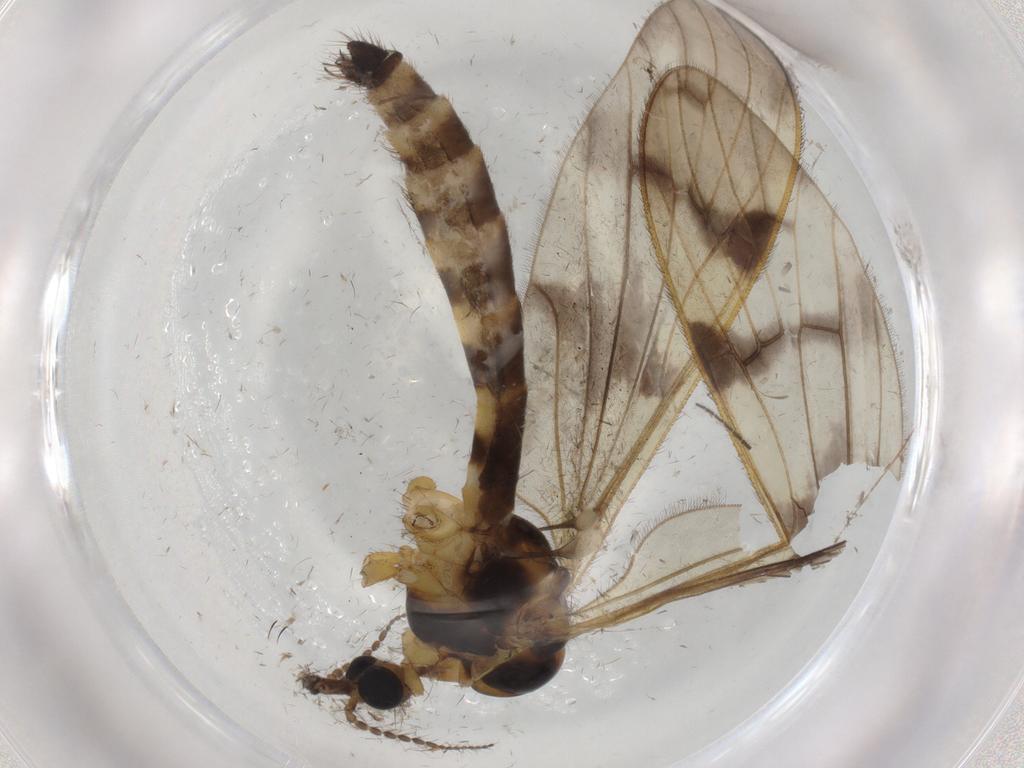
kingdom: Animalia
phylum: Arthropoda
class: Insecta
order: Diptera
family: Limoniidae
